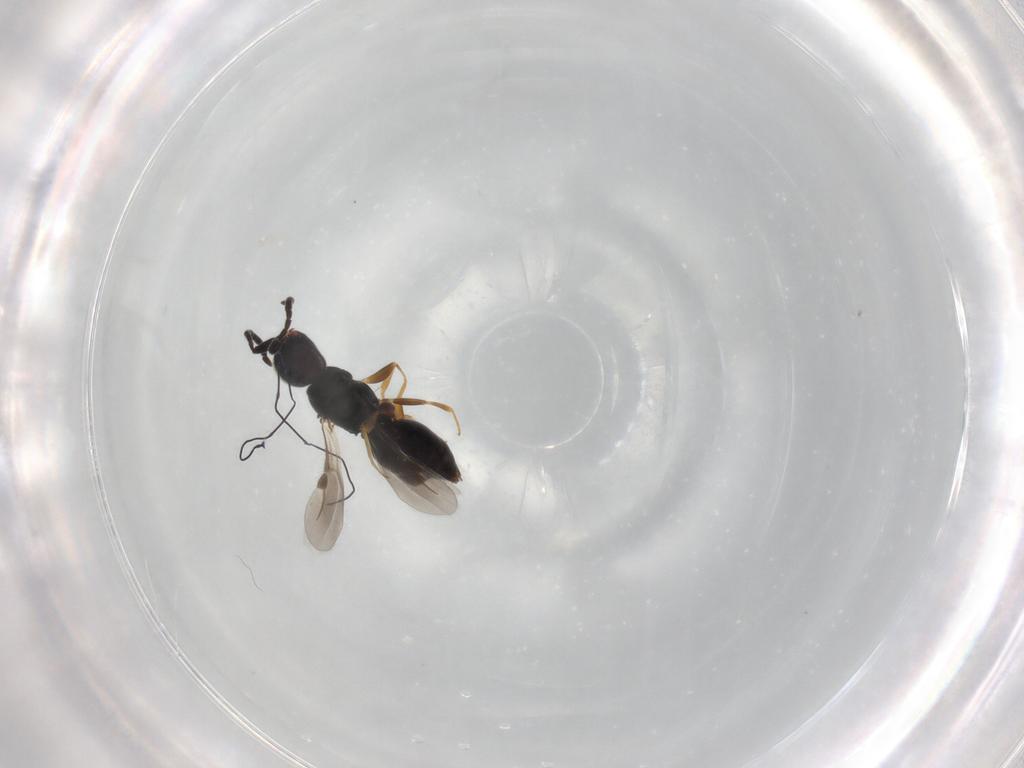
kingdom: Animalia
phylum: Arthropoda
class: Insecta
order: Hymenoptera
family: Megaspilidae
